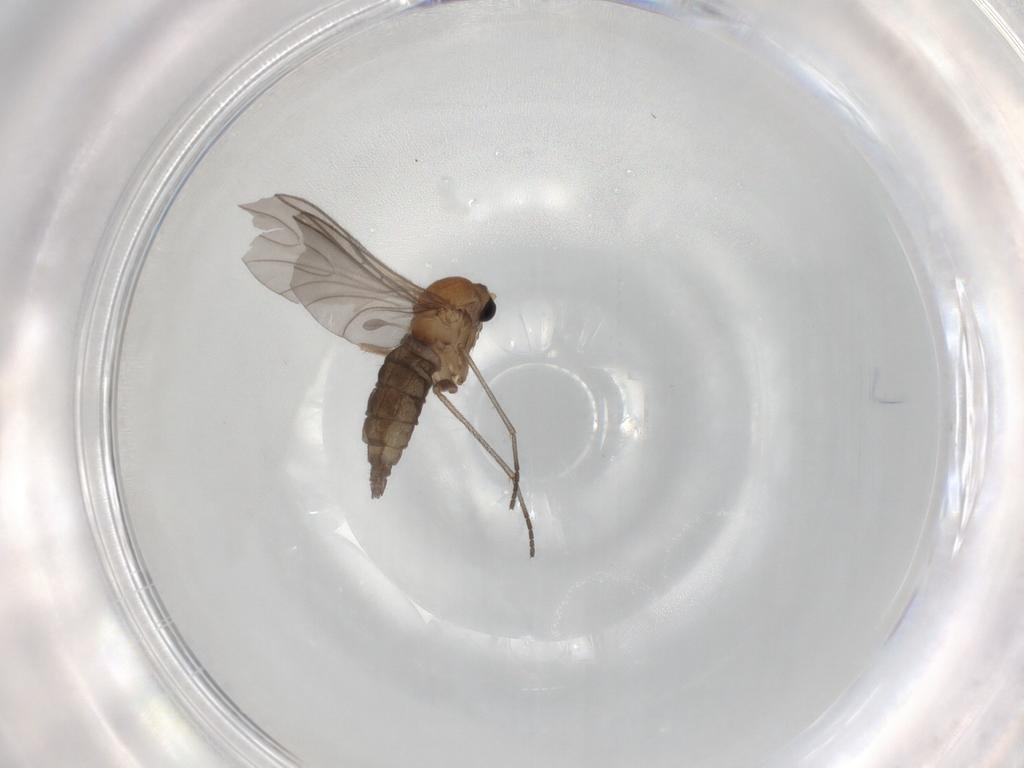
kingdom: Animalia
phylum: Arthropoda
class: Insecta
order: Diptera
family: Sciaridae
